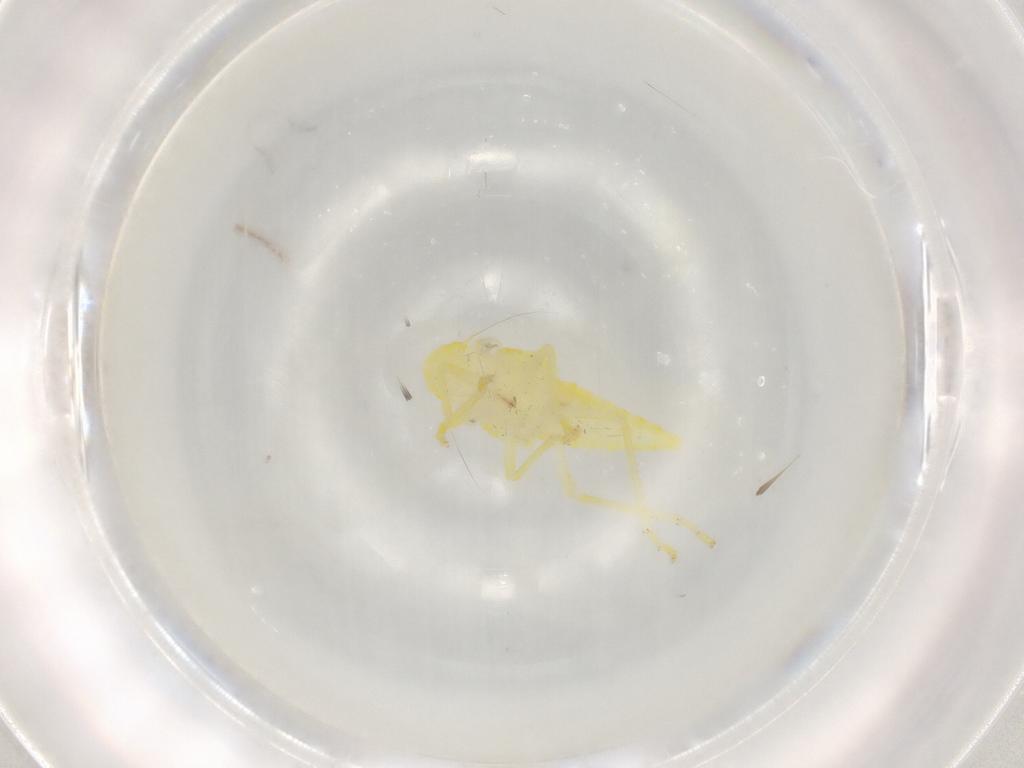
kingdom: Animalia
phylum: Arthropoda
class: Insecta
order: Hemiptera
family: Cicadellidae
